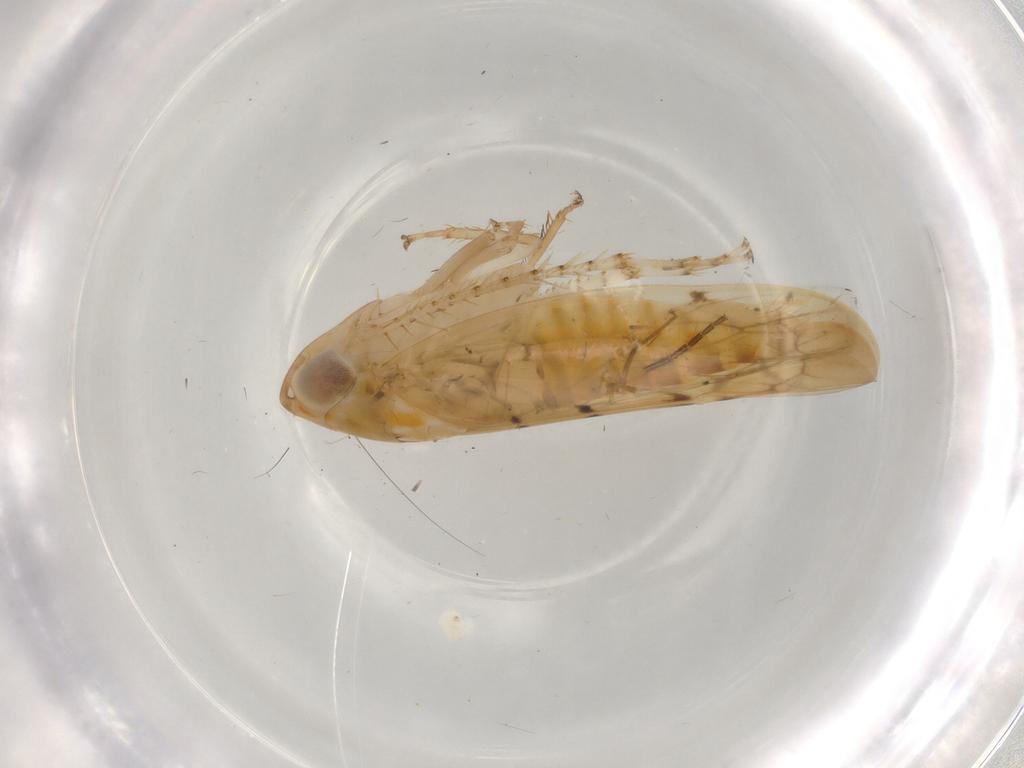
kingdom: Animalia
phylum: Arthropoda
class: Insecta
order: Hemiptera
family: Cicadellidae
